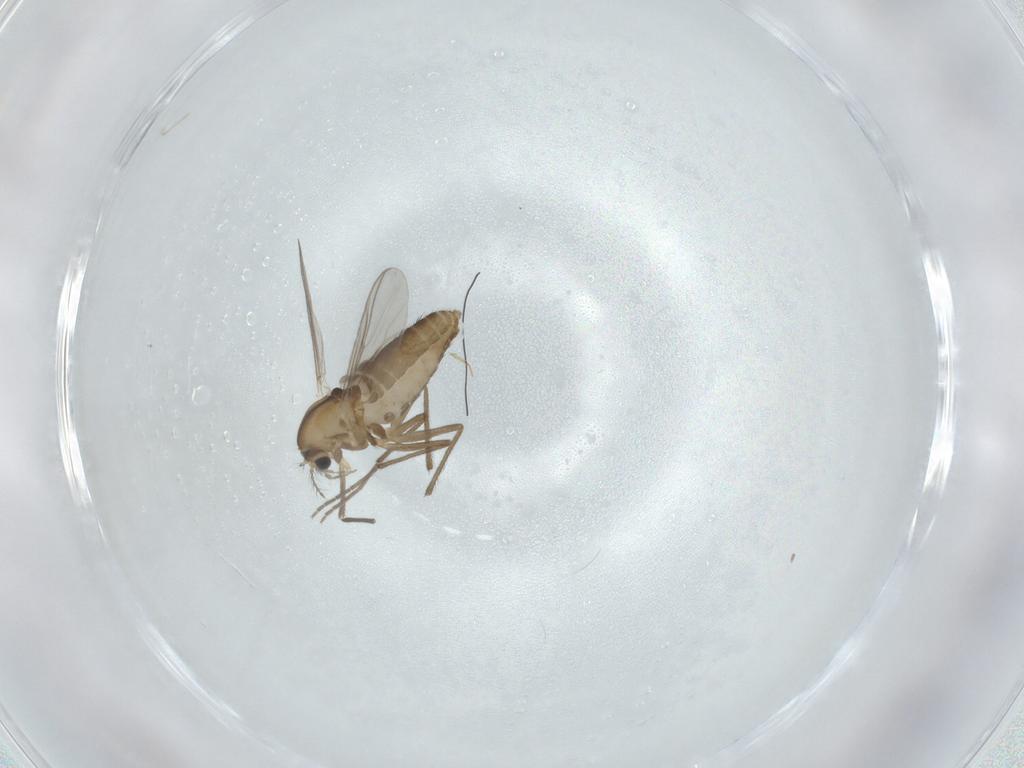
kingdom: Animalia
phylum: Arthropoda
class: Insecta
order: Diptera
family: Chironomidae
